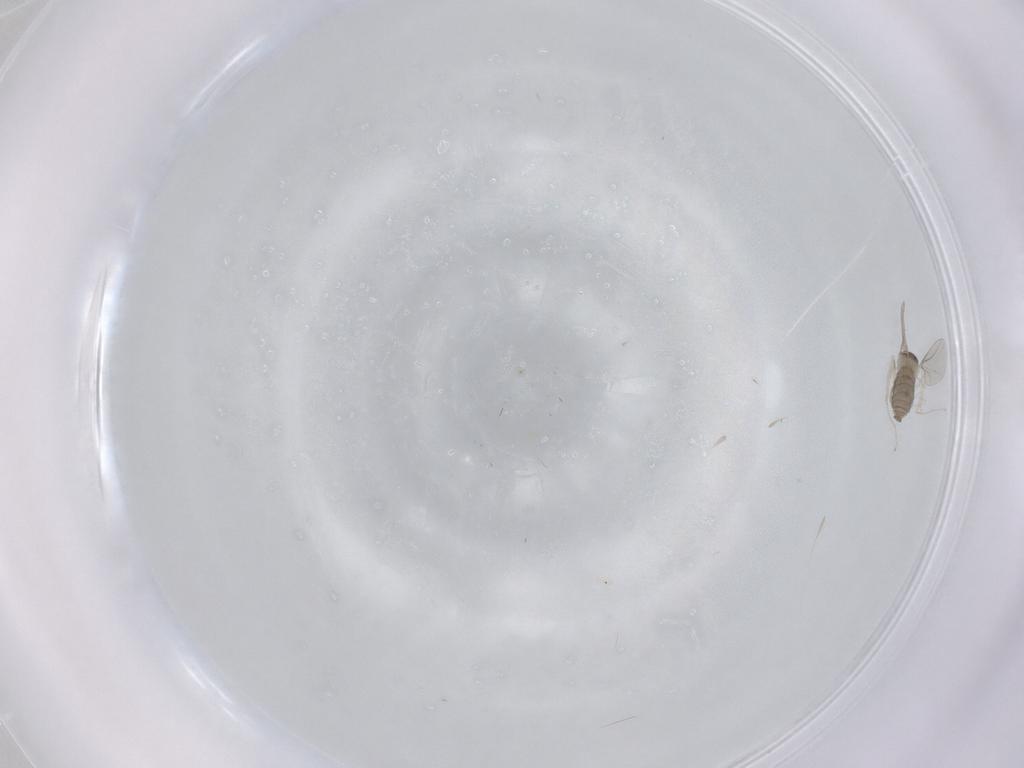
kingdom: Animalia
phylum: Arthropoda
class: Insecta
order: Diptera
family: Cecidomyiidae
